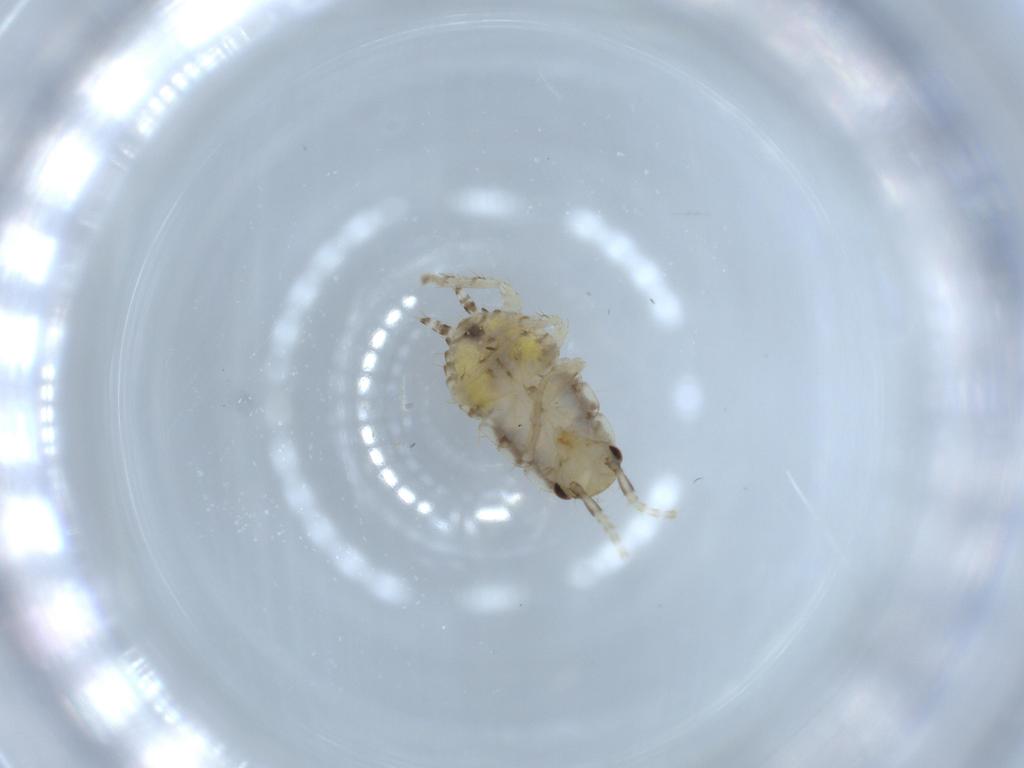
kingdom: Animalia
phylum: Arthropoda
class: Insecta
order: Blattodea
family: Ectobiidae
